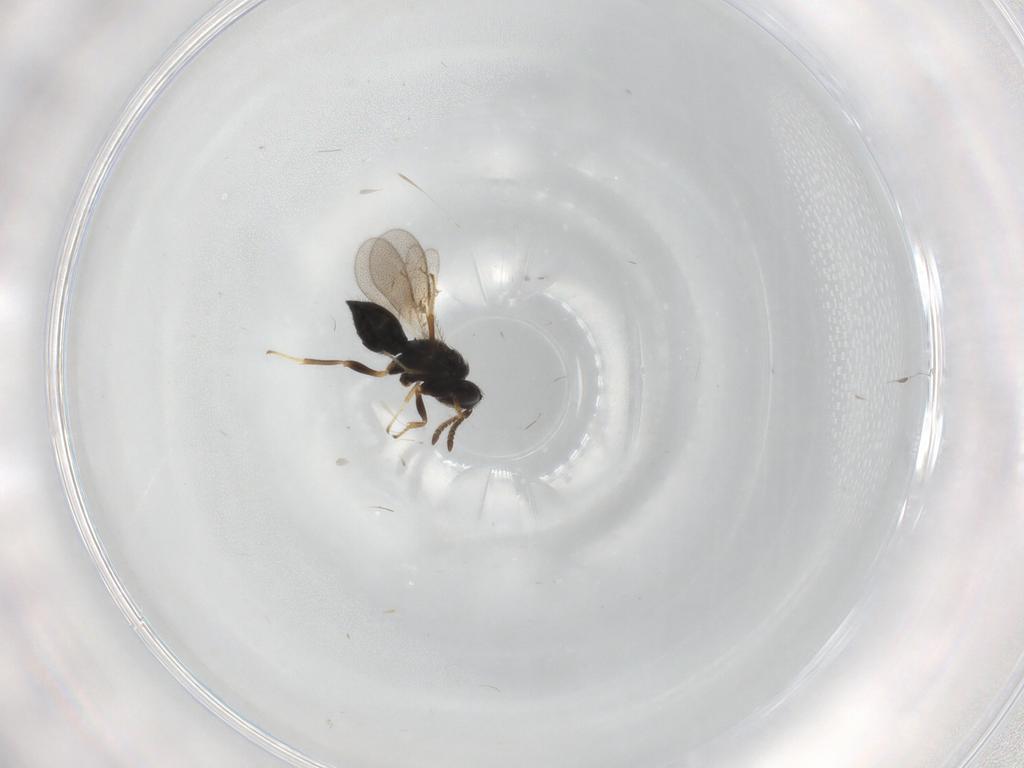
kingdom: Animalia
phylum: Arthropoda
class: Insecta
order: Hymenoptera
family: Pteromalidae
